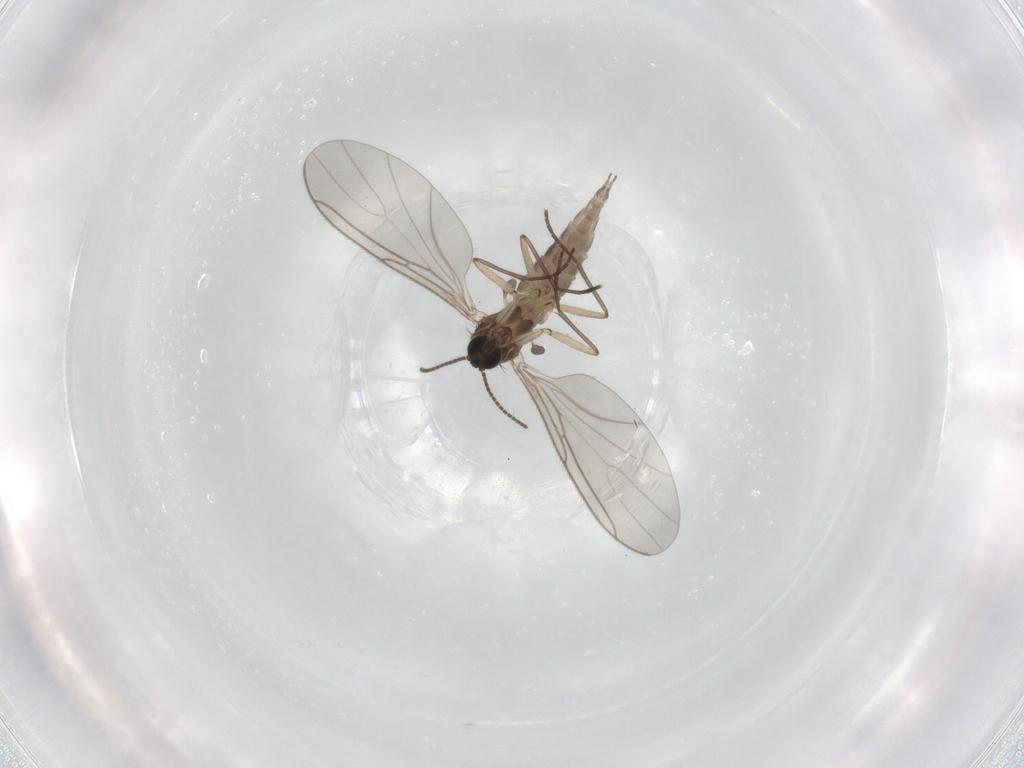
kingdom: Animalia
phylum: Arthropoda
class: Insecta
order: Diptera
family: Sciaridae
